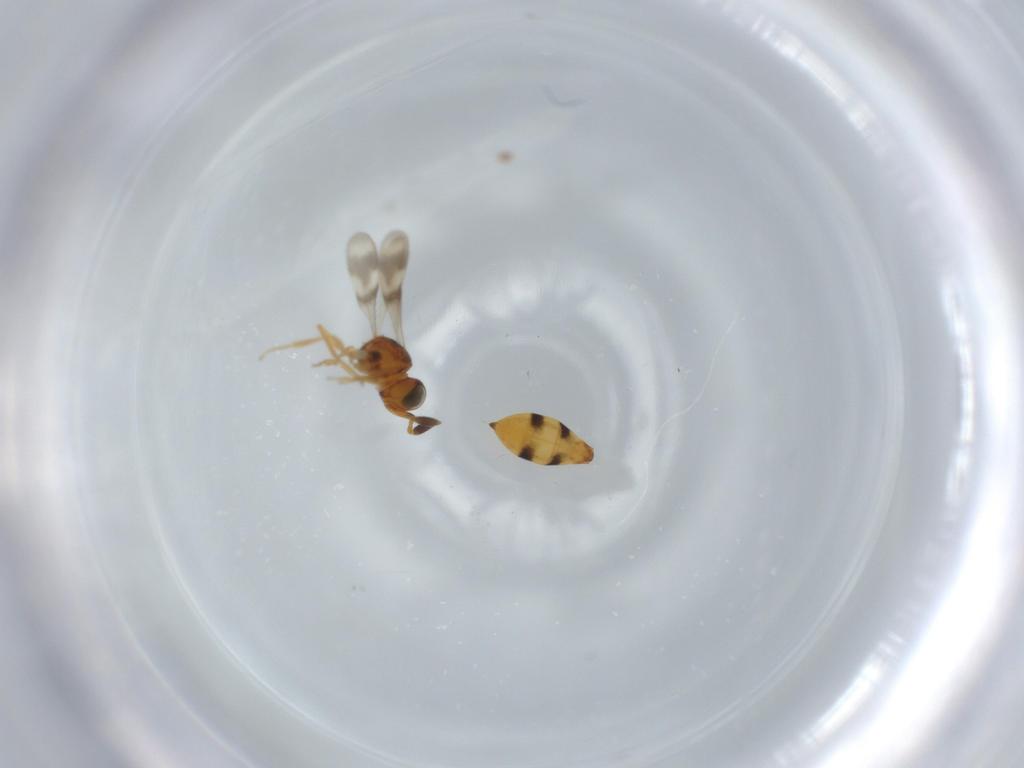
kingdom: Animalia
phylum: Arthropoda
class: Insecta
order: Hymenoptera
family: Scelionidae
